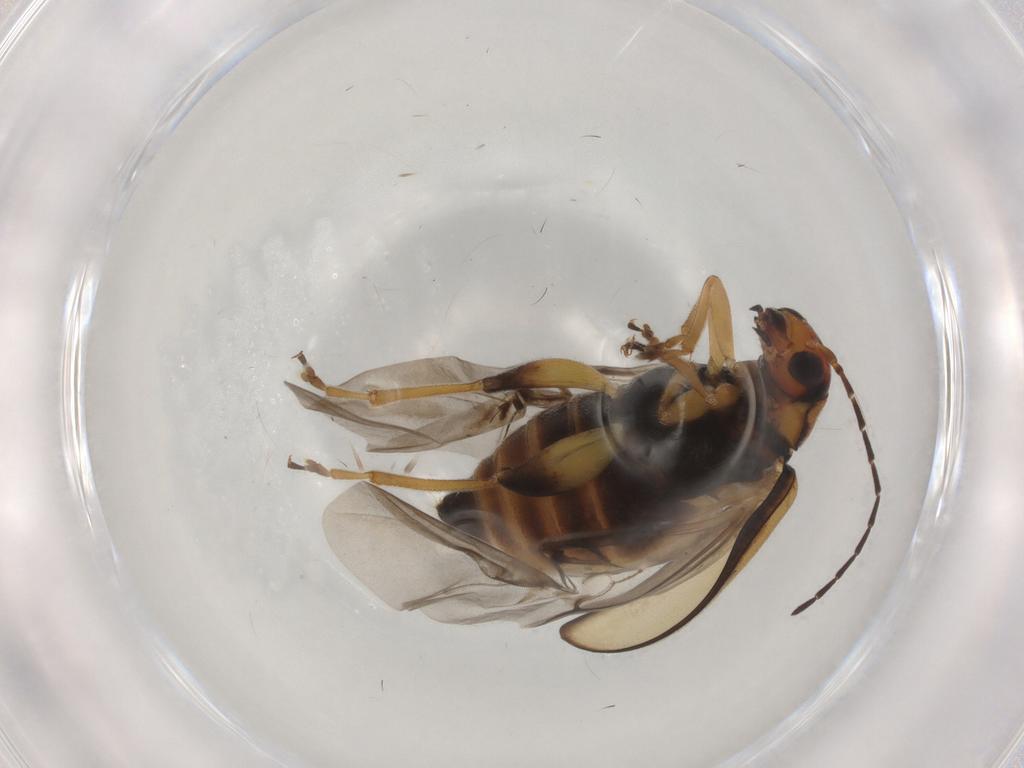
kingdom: Animalia
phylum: Arthropoda
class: Insecta
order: Coleoptera
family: Chrysomelidae
